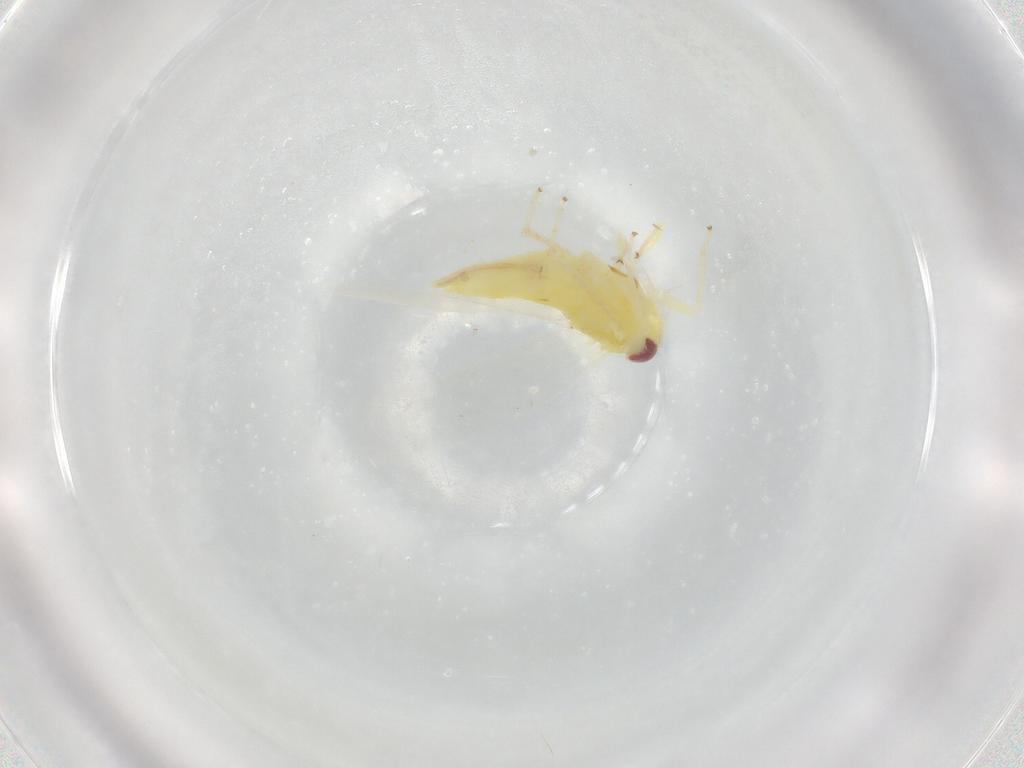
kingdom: Animalia
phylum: Arthropoda
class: Insecta
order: Hemiptera
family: Cicadellidae
